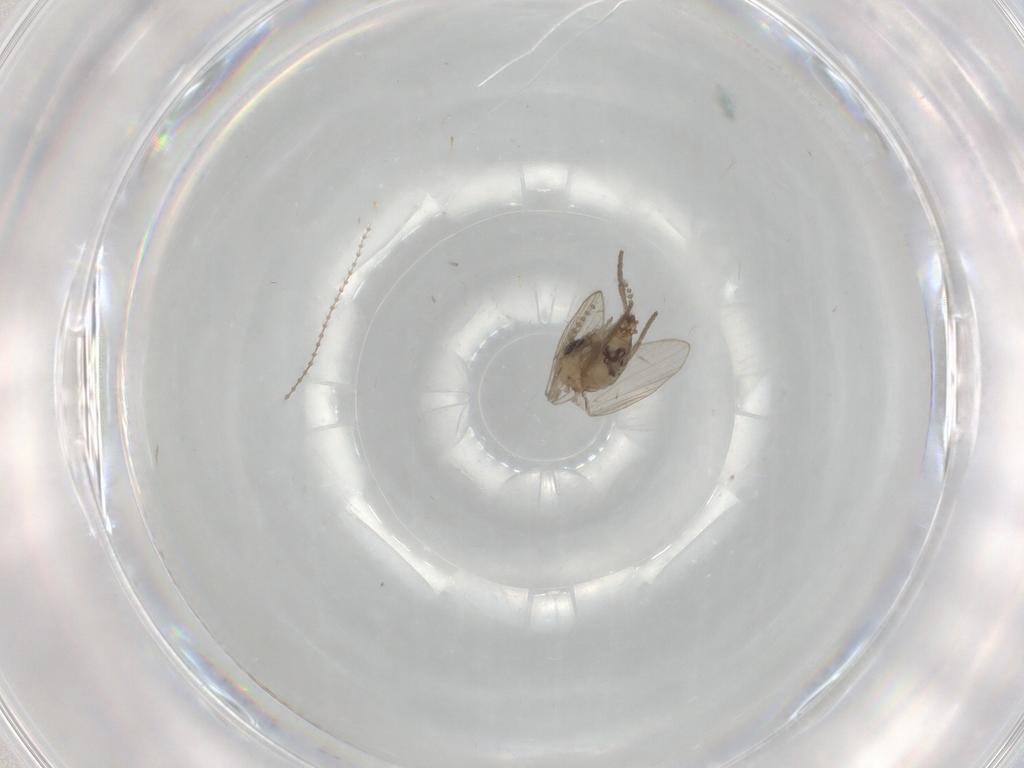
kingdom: Animalia
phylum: Arthropoda
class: Insecta
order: Diptera
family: Psychodidae
